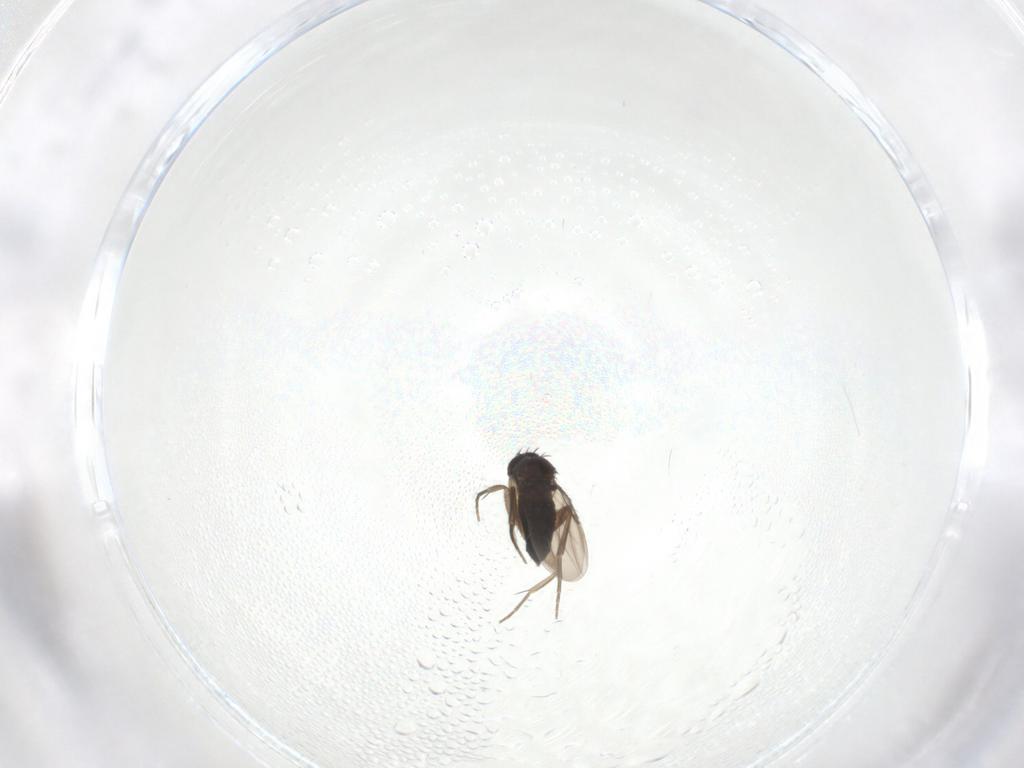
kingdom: Animalia
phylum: Arthropoda
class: Insecta
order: Diptera
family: Phoridae
